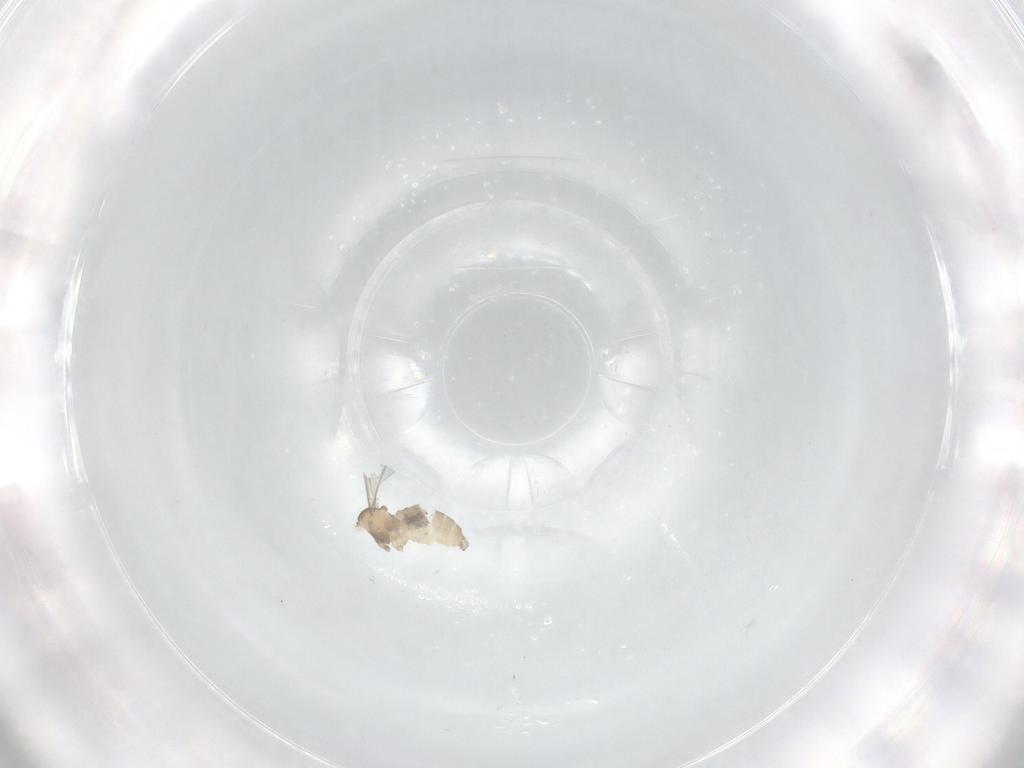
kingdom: Animalia
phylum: Arthropoda
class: Insecta
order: Diptera
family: Cecidomyiidae
